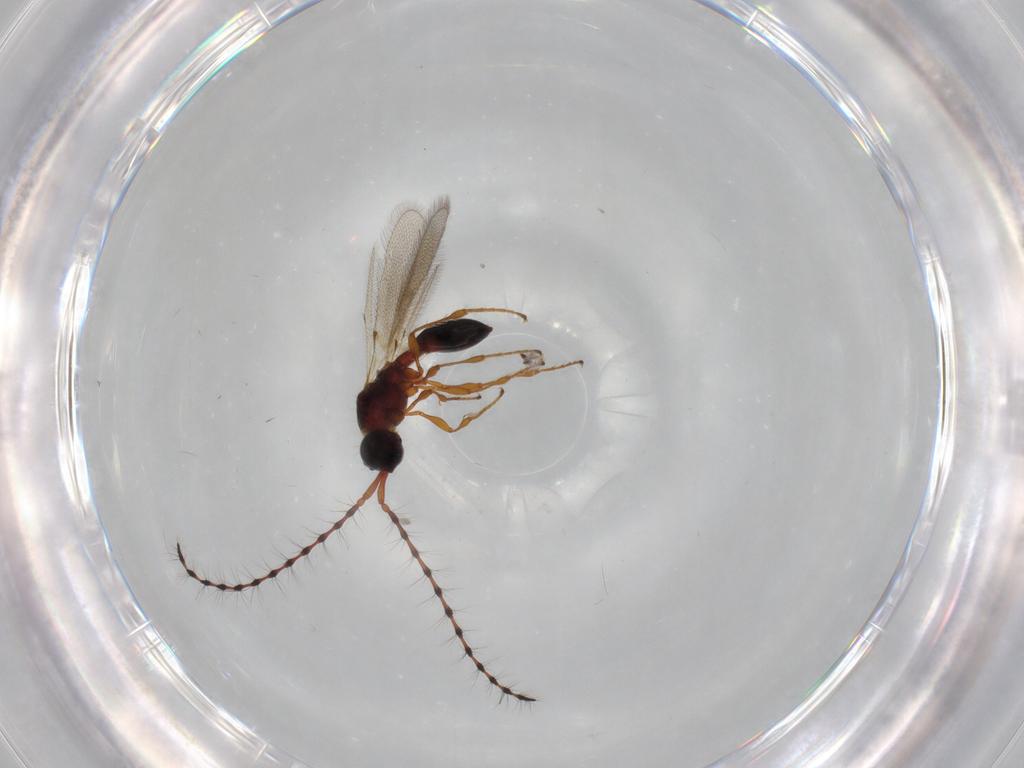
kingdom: Animalia
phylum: Arthropoda
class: Insecta
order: Hymenoptera
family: Diapriidae
